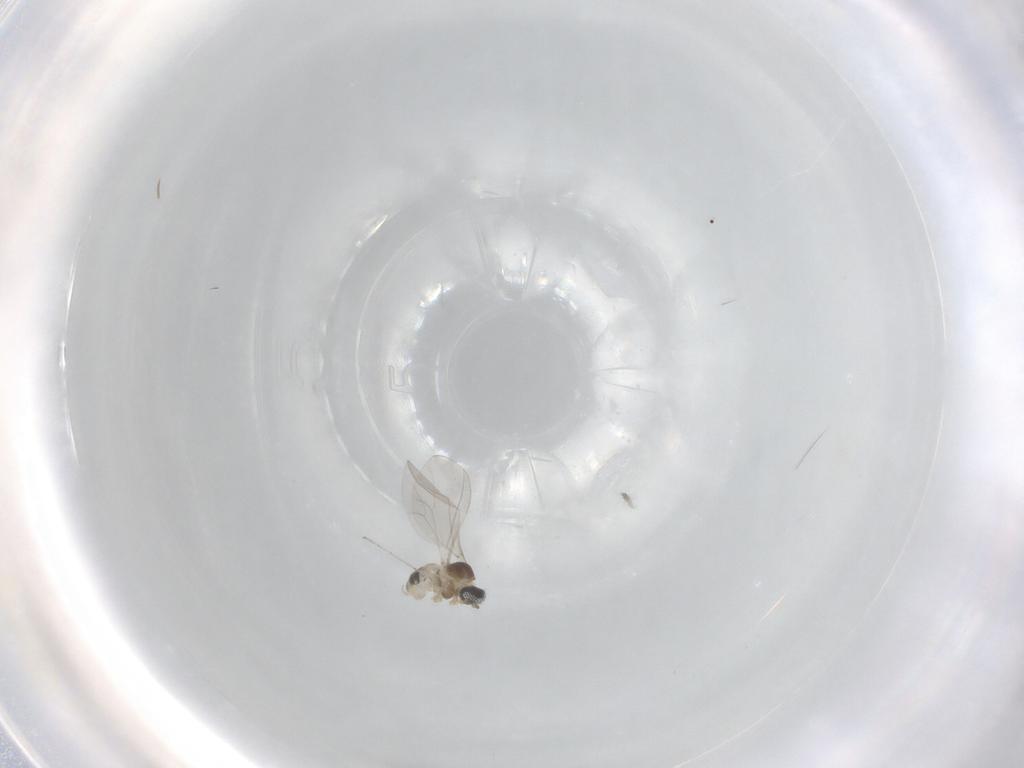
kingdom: Animalia
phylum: Arthropoda
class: Insecta
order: Diptera
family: Cecidomyiidae
